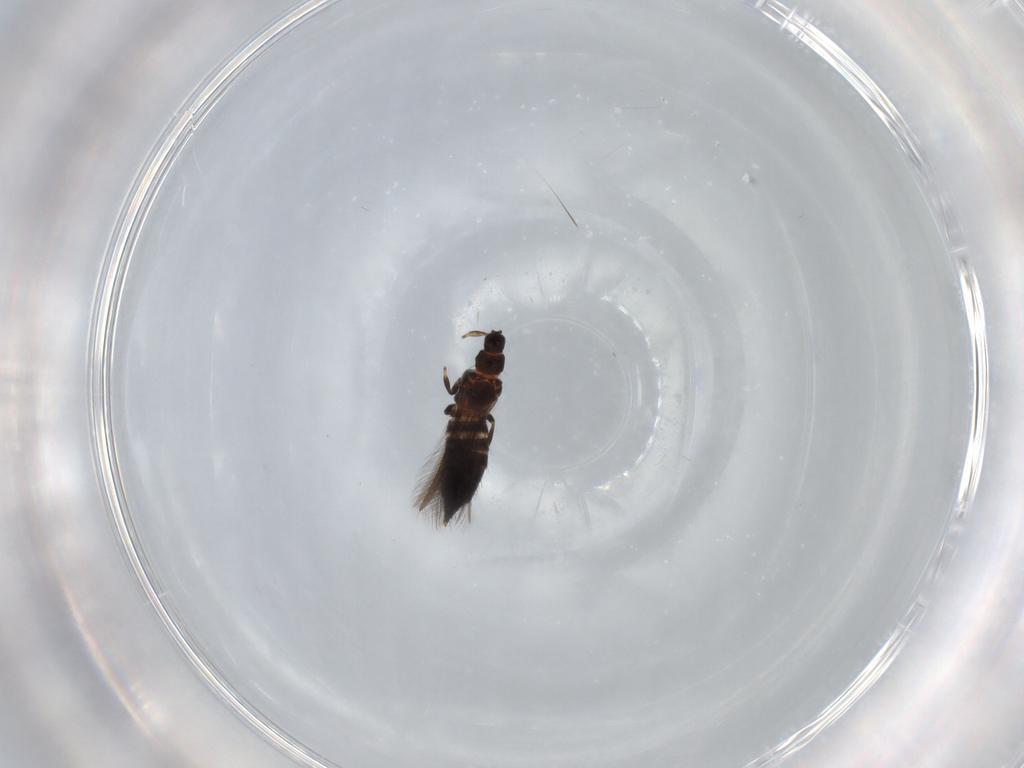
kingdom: Animalia
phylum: Arthropoda
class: Insecta
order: Thysanoptera
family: Thripidae
